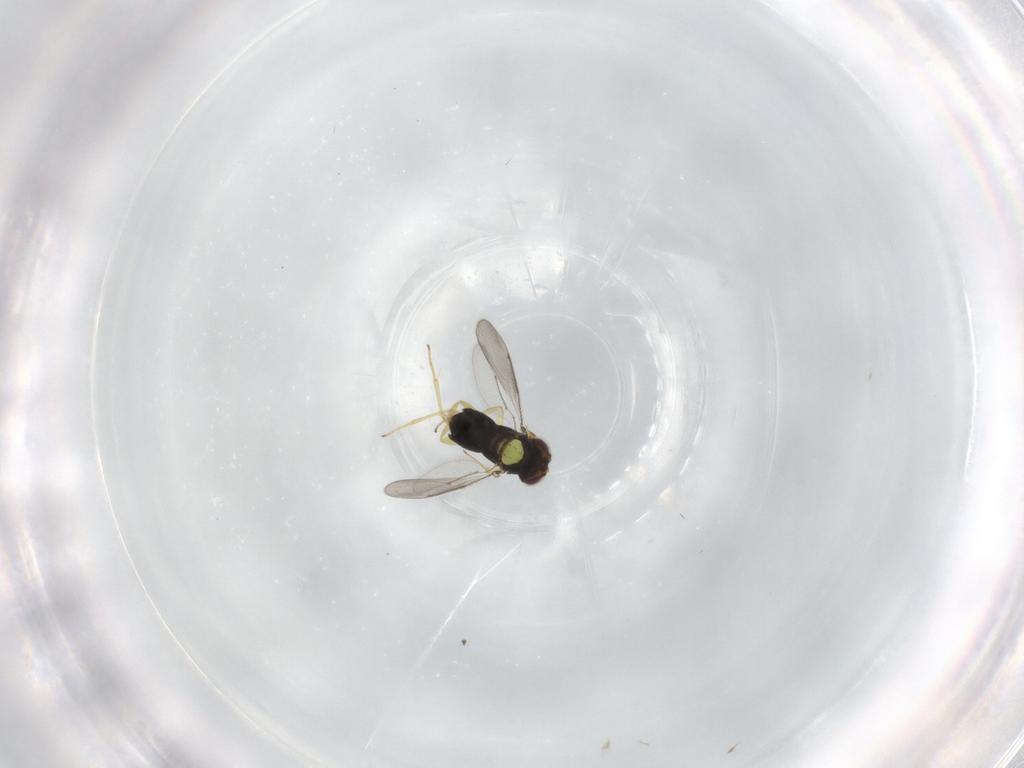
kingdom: Animalia
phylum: Arthropoda
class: Insecta
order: Hymenoptera
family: Aphelinidae
